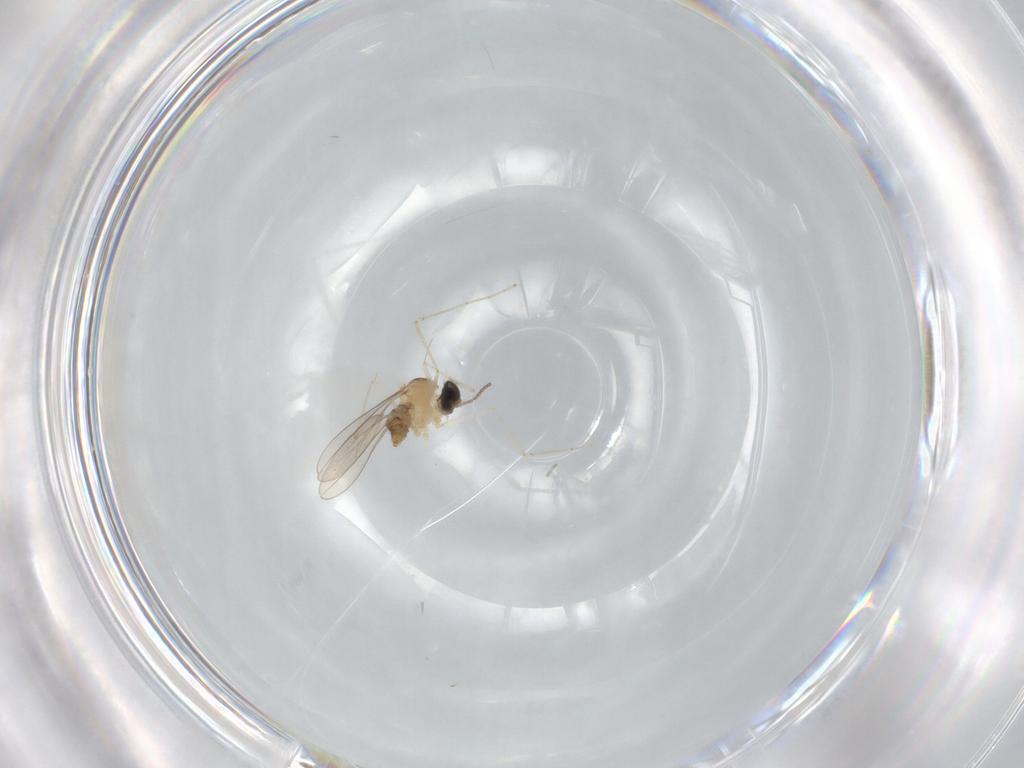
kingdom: Animalia
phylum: Arthropoda
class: Insecta
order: Diptera
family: Cecidomyiidae
